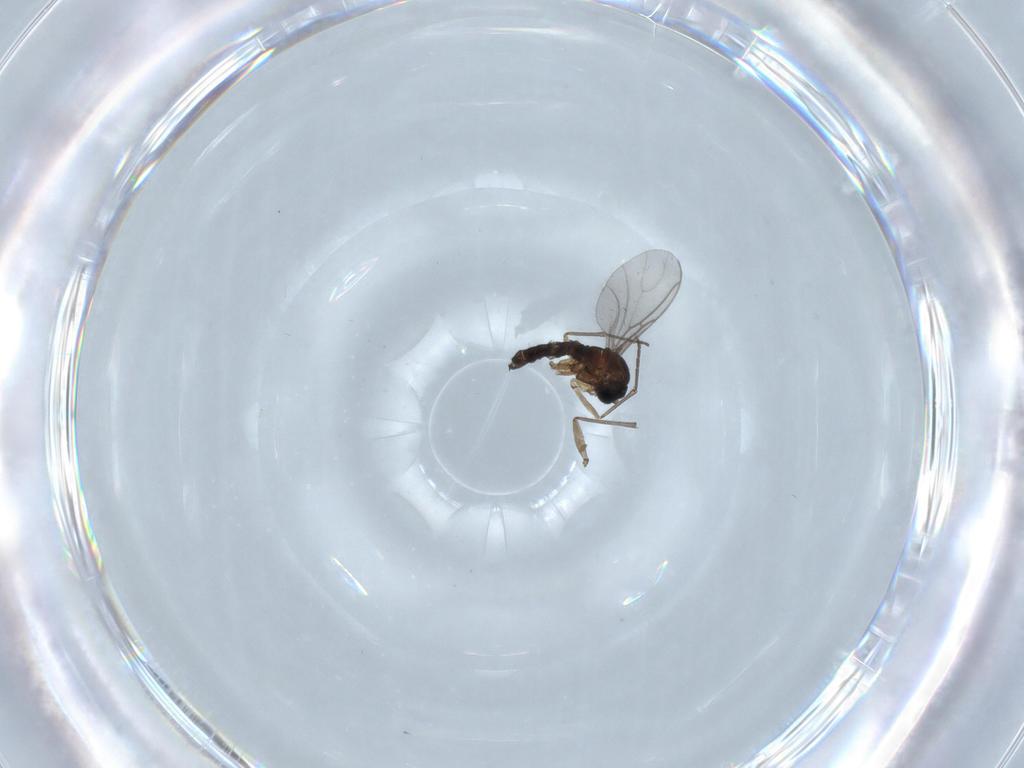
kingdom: Animalia
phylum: Arthropoda
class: Insecta
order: Diptera
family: Sciaridae
